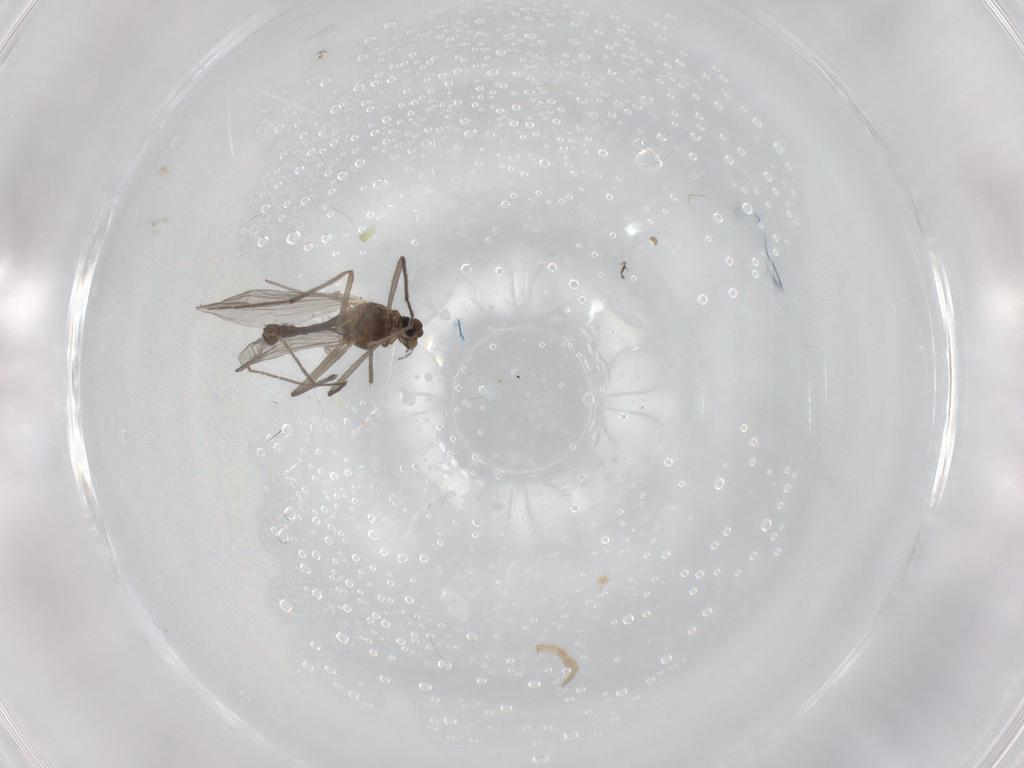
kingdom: Animalia
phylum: Arthropoda
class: Insecta
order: Diptera
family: Chironomidae
